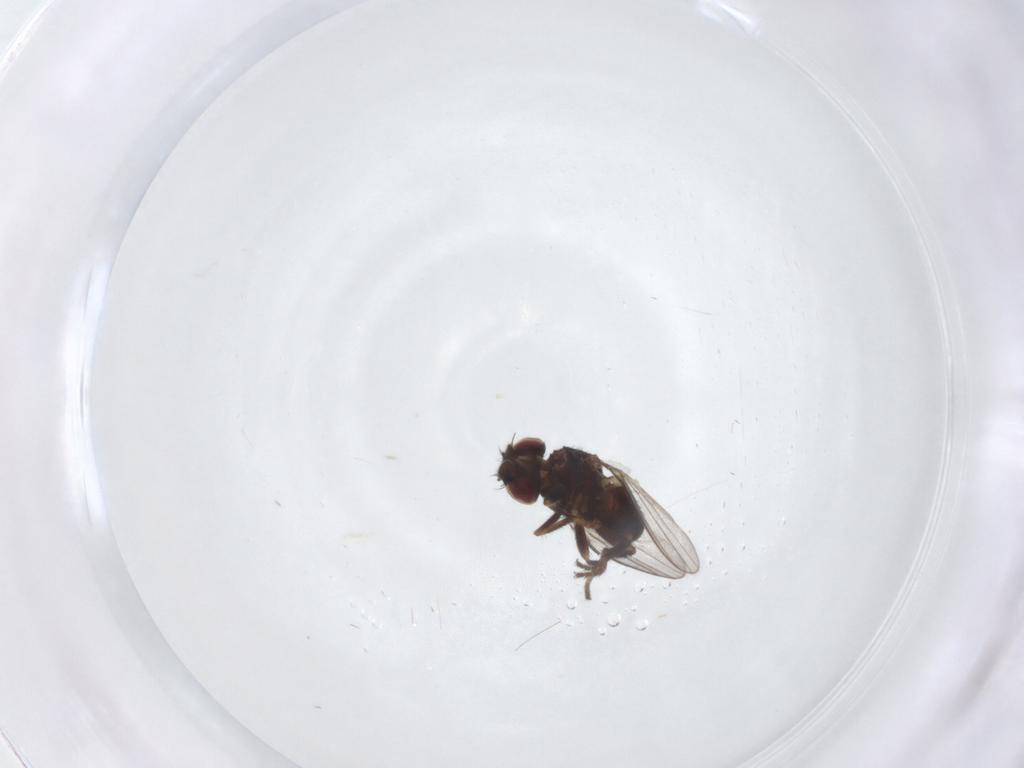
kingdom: Animalia
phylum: Arthropoda
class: Insecta
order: Diptera
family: Milichiidae
